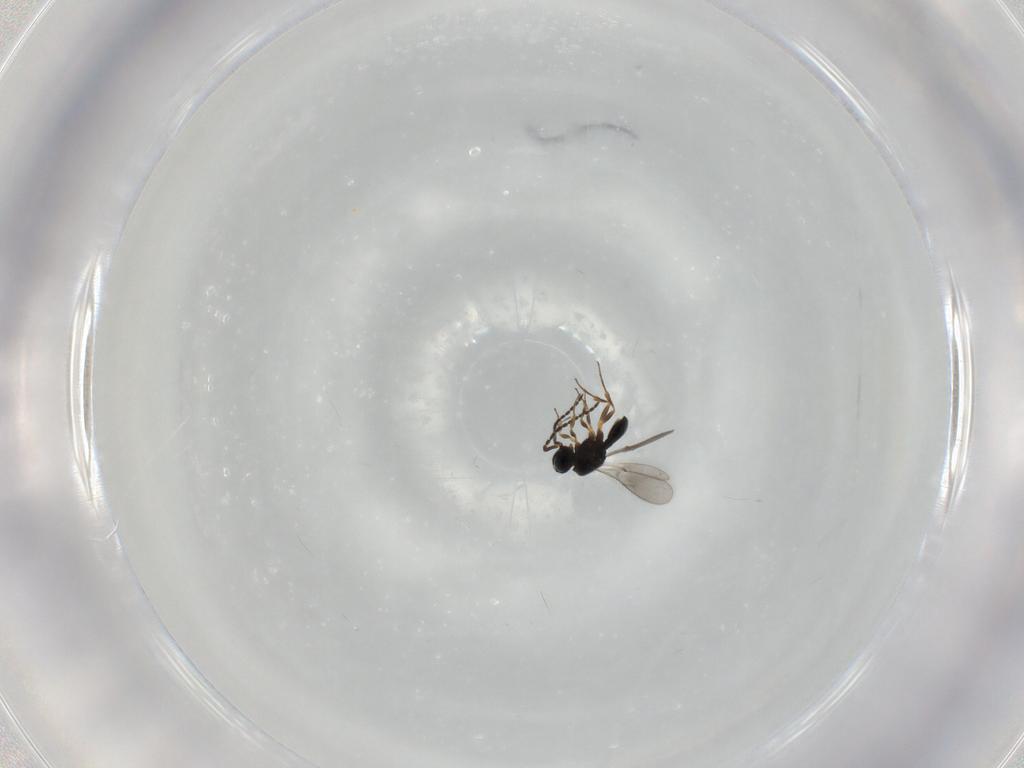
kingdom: Animalia
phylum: Arthropoda
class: Insecta
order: Hymenoptera
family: Scelionidae
